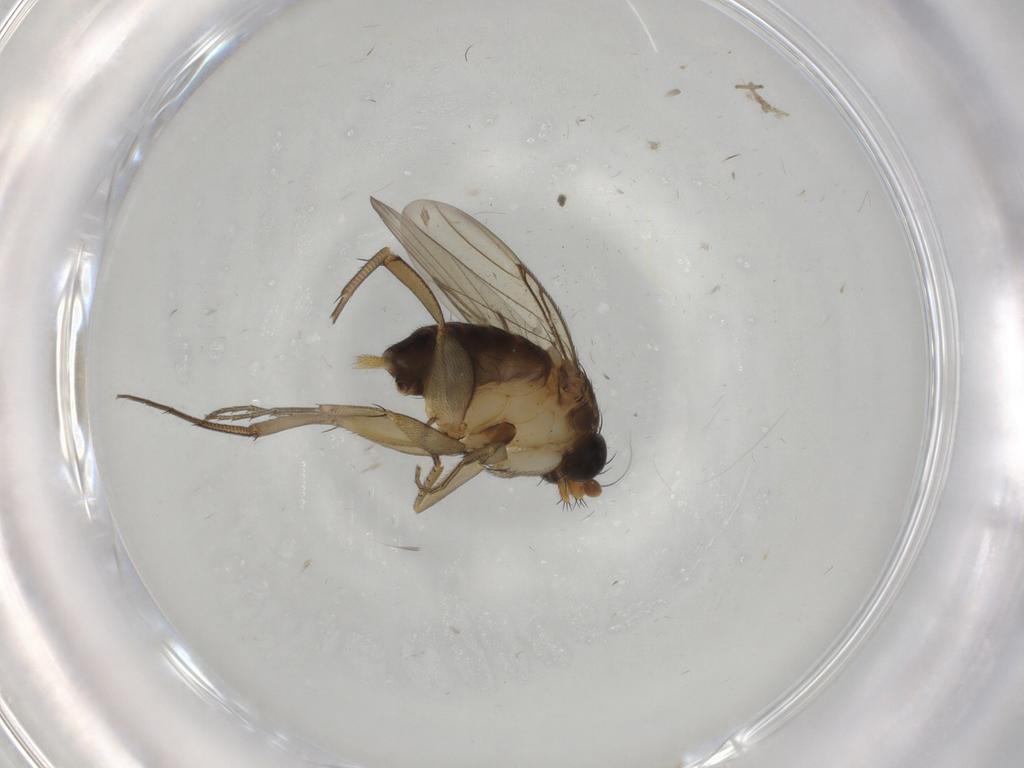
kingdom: Animalia
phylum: Arthropoda
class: Insecta
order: Diptera
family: Phoridae
